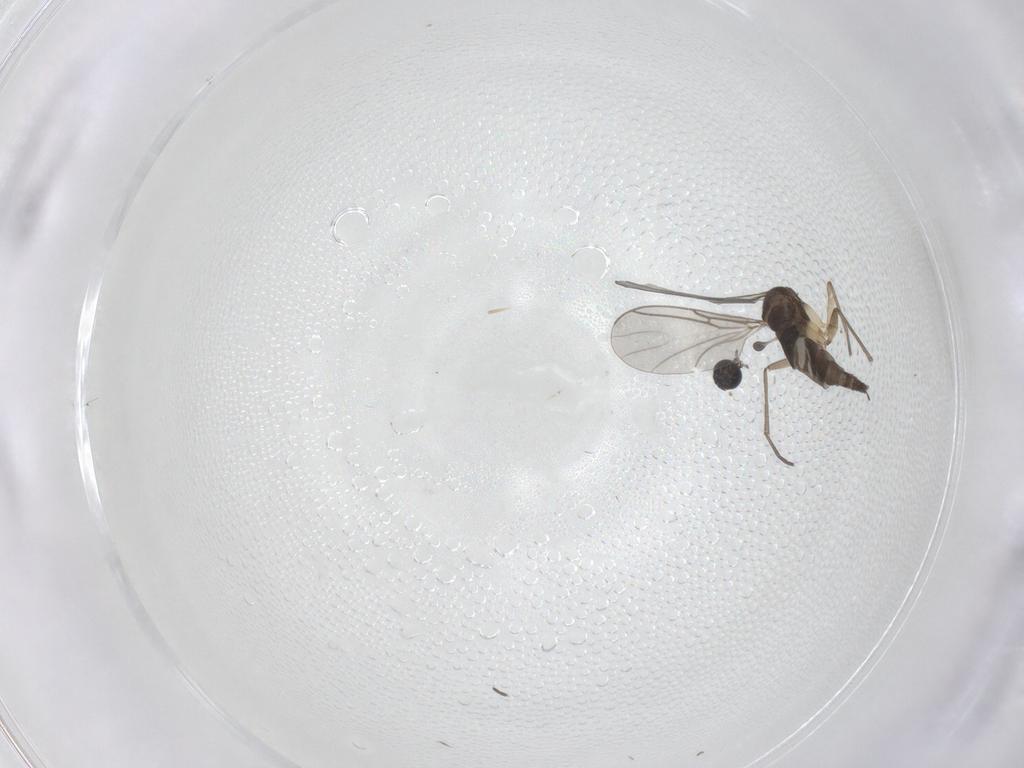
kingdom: Animalia
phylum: Arthropoda
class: Insecta
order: Diptera
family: Sciaridae
